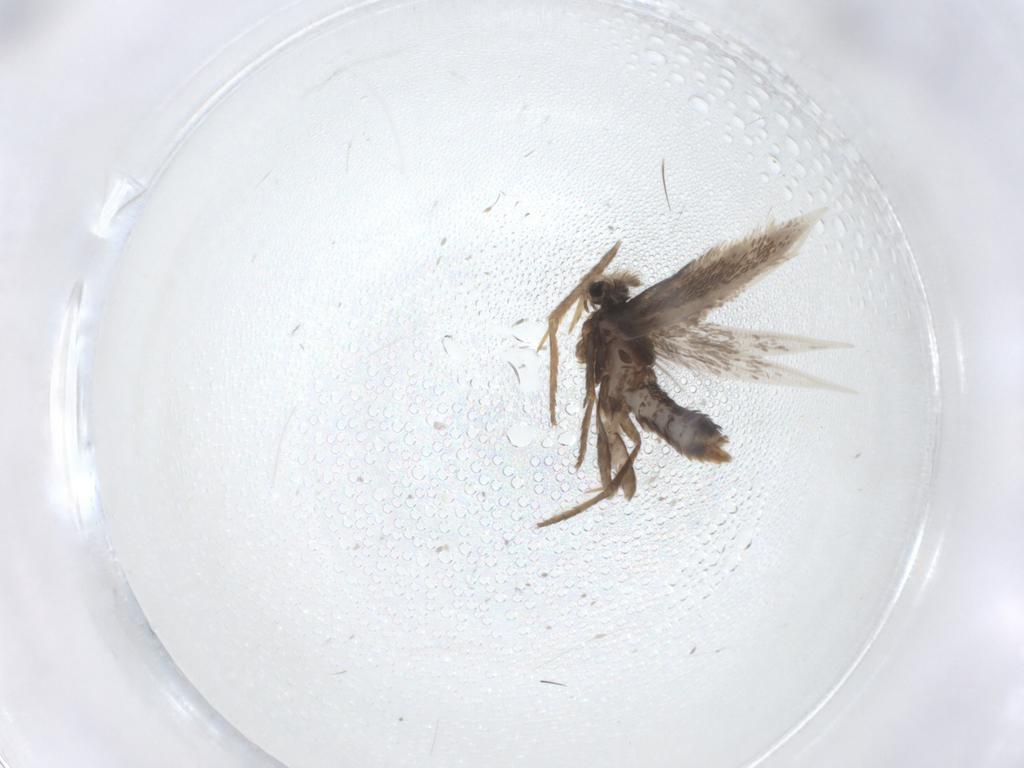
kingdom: Animalia
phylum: Arthropoda
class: Insecta
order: Lepidoptera
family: Nepticulidae
